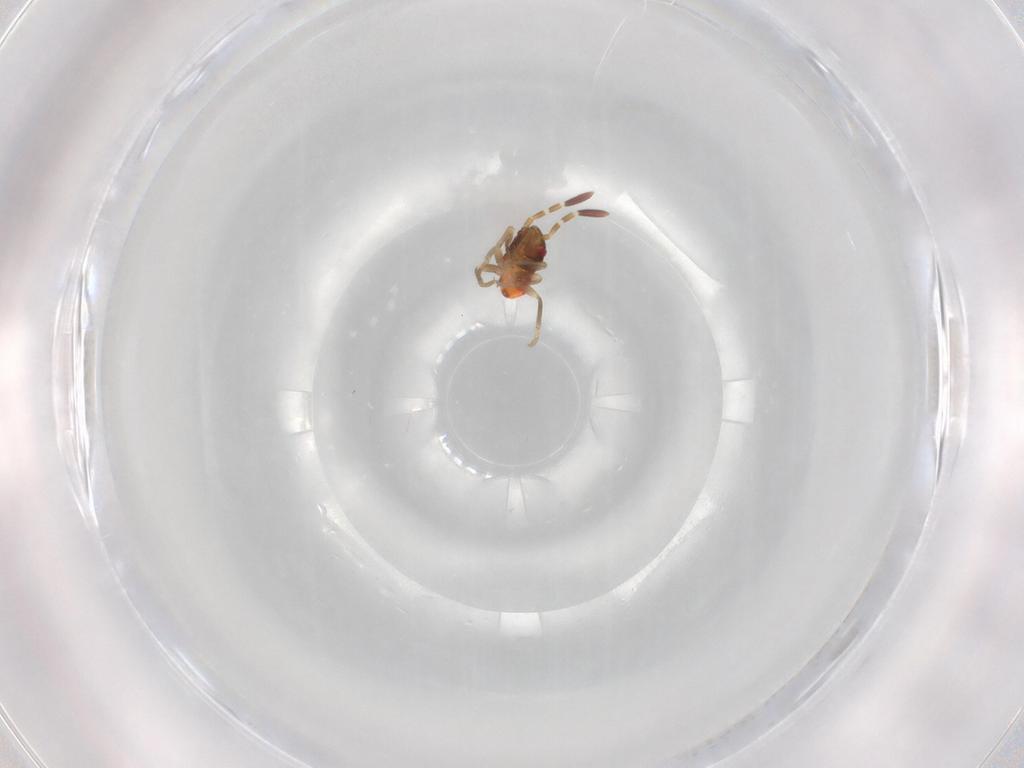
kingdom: Animalia
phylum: Arthropoda
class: Insecta
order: Hemiptera
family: Rhyparochromidae
